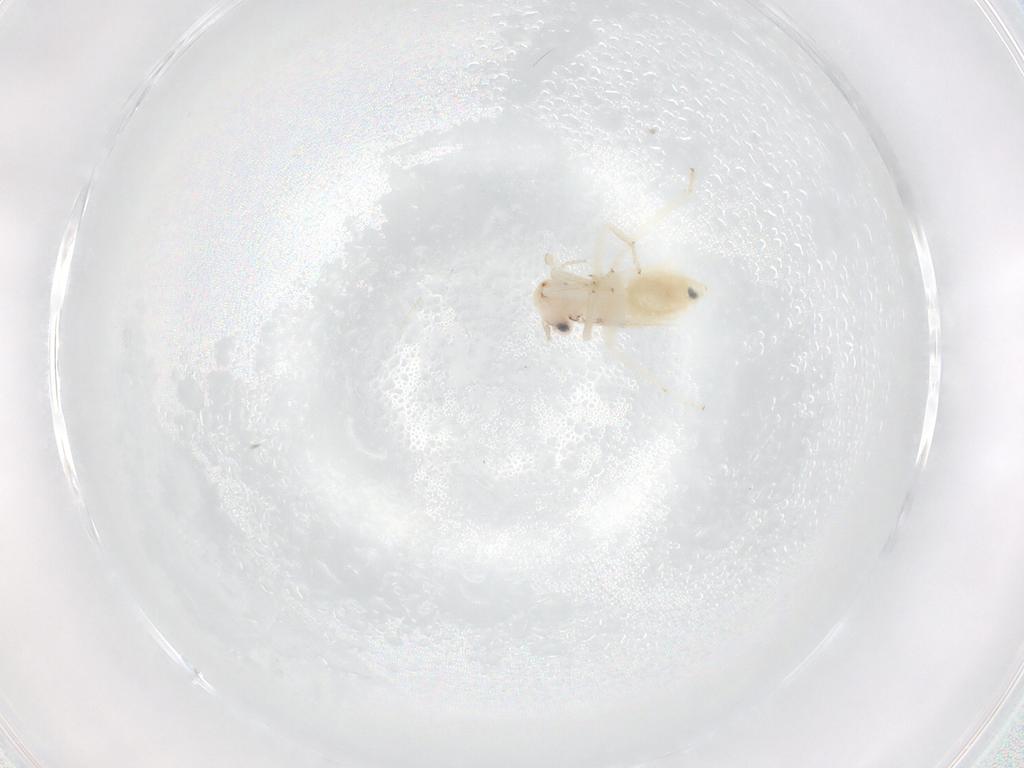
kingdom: Animalia
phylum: Arthropoda
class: Insecta
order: Psocodea
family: Lepidopsocidae
